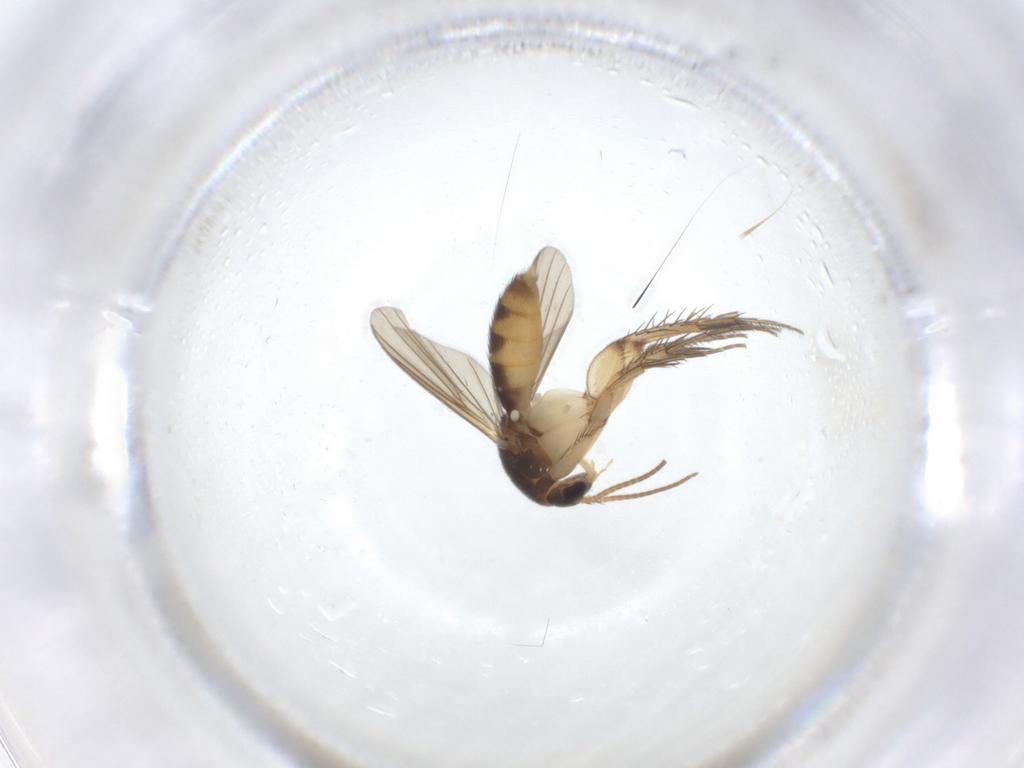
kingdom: Animalia
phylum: Arthropoda
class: Insecta
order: Diptera
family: Mycetophilidae
